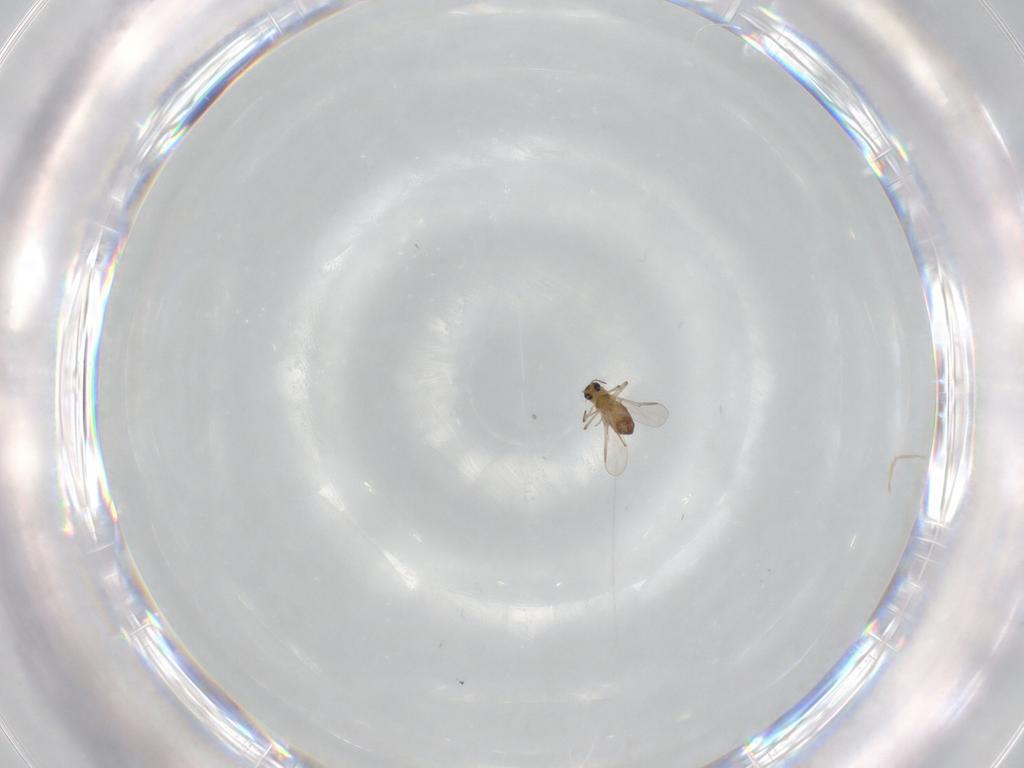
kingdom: Animalia
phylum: Arthropoda
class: Insecta
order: Diptera
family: Chironomidae
